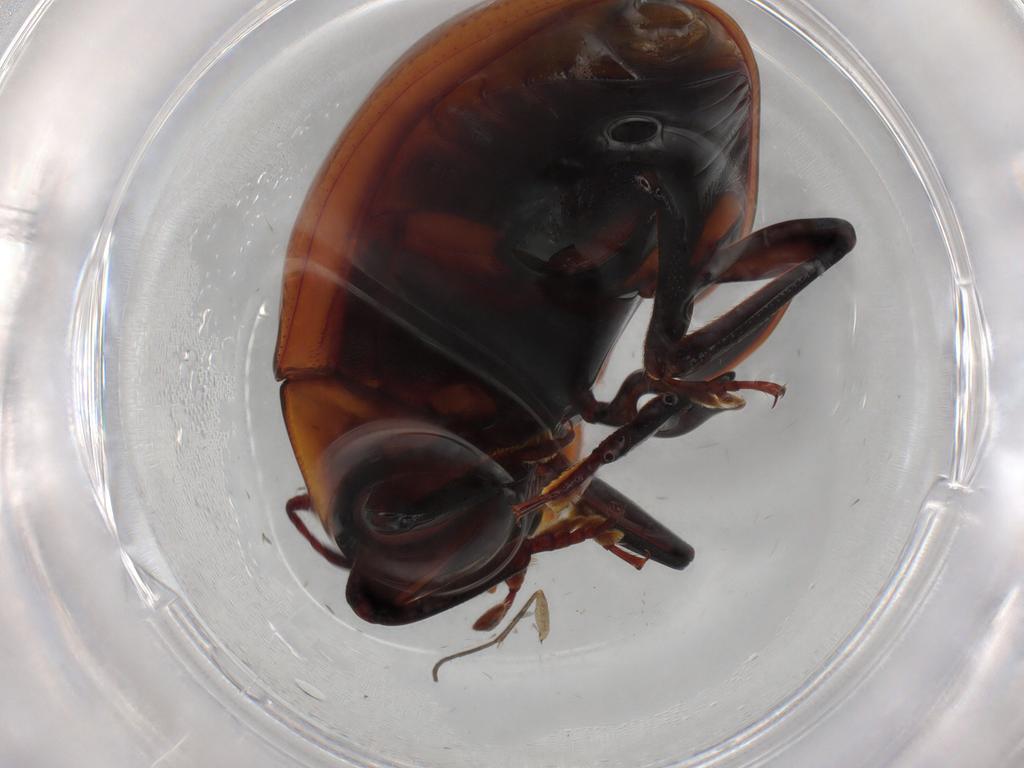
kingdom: Animalia
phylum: Arthropoda
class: Insecta
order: Coleoptera
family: Zopheridae
